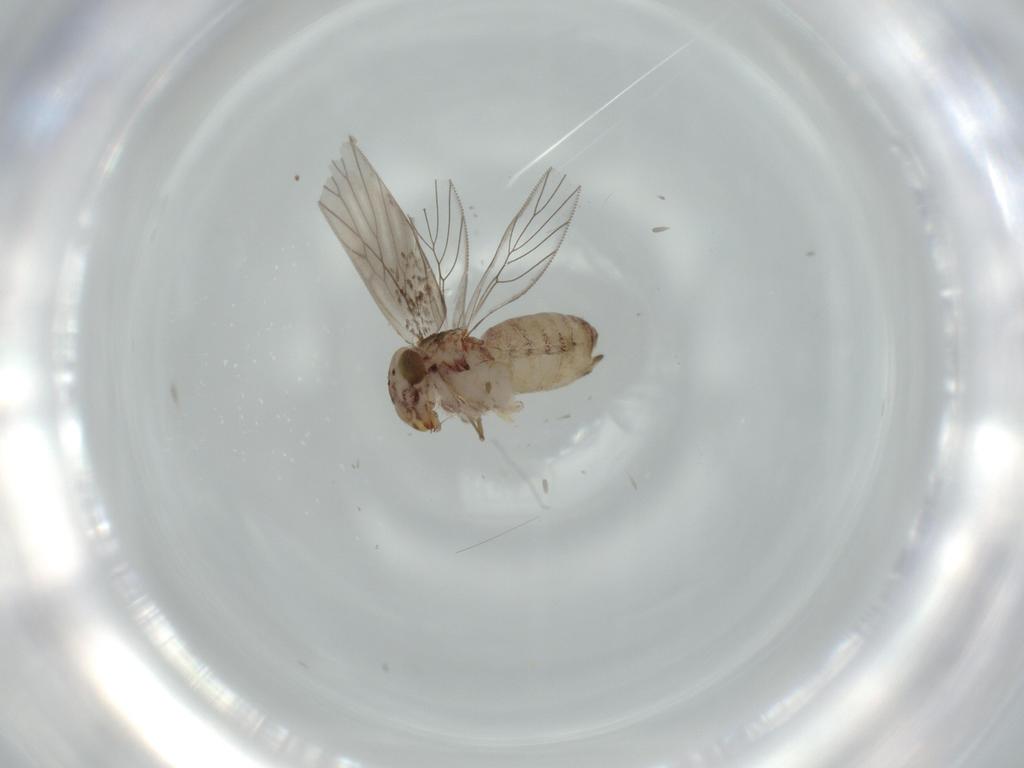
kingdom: Animalia
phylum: Arthropoda
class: Insecta
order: Psocodea
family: Lepidopsocidae
